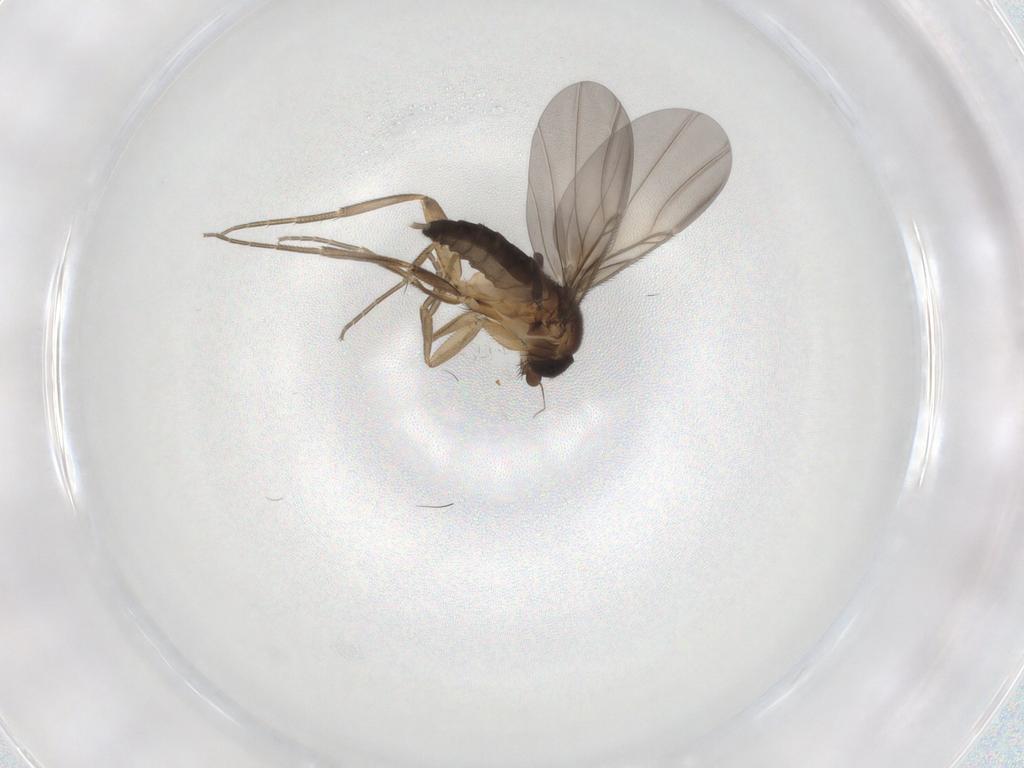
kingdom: Animalia
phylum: Arthropoda
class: Insecta
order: Diptera
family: Phoridae
